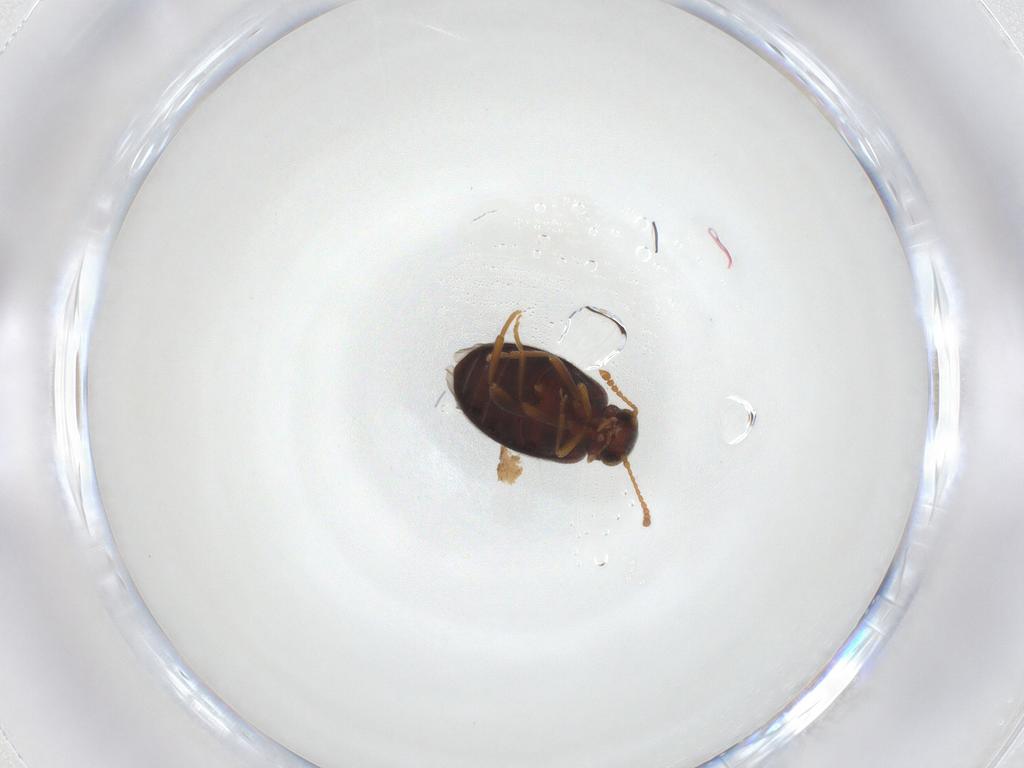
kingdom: Animalia
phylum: Arthropoda
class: Insecta
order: Coleoptera
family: Aderidae
